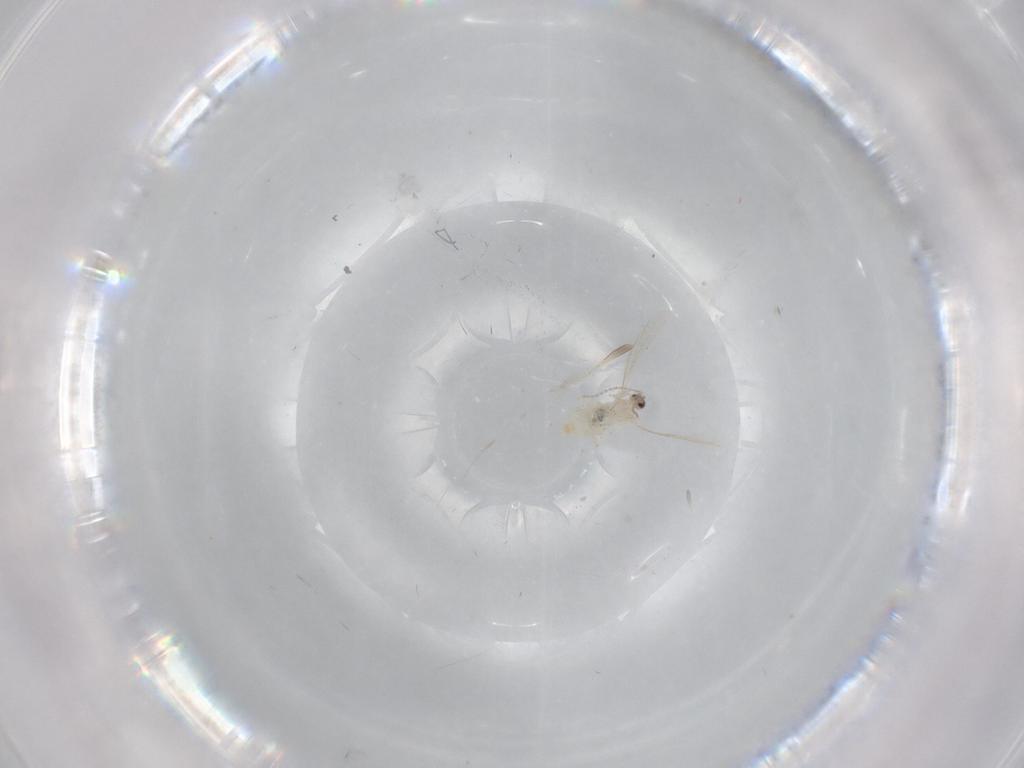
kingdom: Animalia
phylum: Arthropoda
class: Insecta
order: Diptera
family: Cecidomyiidae
